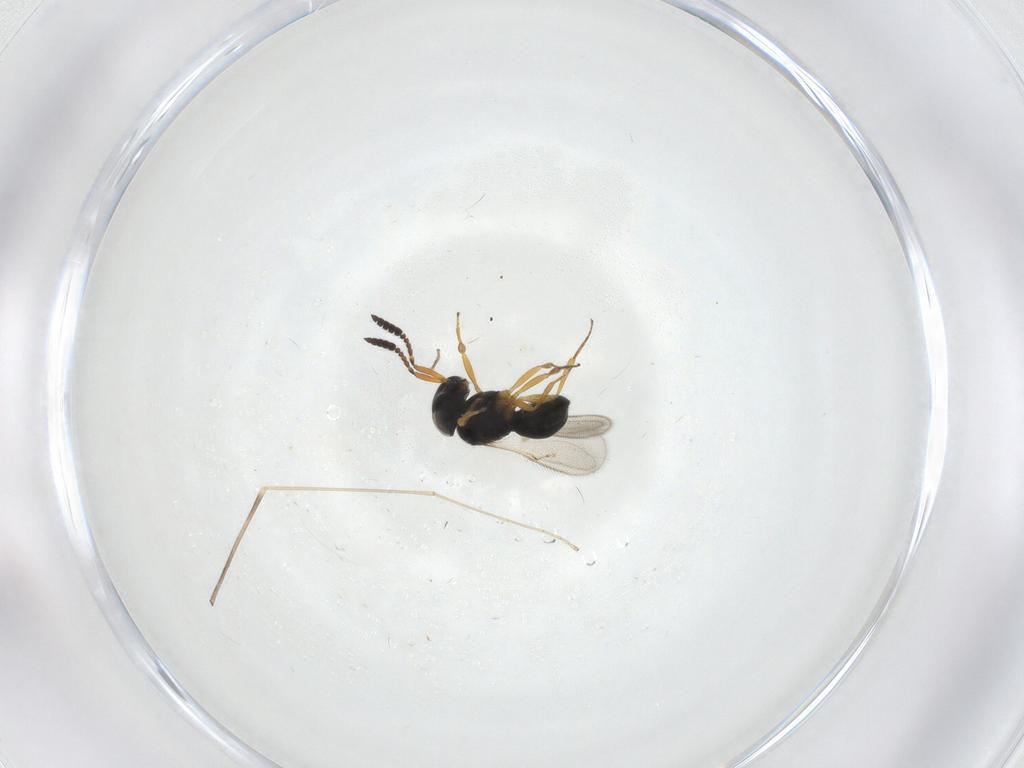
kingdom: Animalia
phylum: Arthropoda
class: Insecta
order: Hymenoptera
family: Scelionidae
